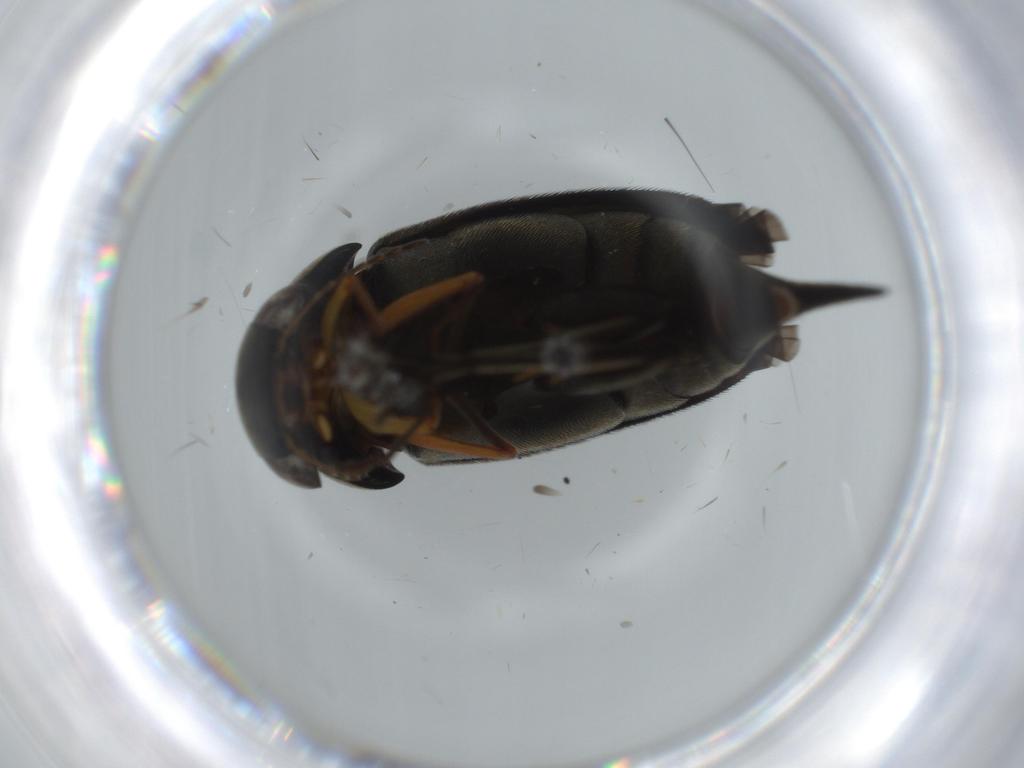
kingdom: Animalia
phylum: Arthropoda
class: Insecta
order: Coleoptera
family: Mordellidae
